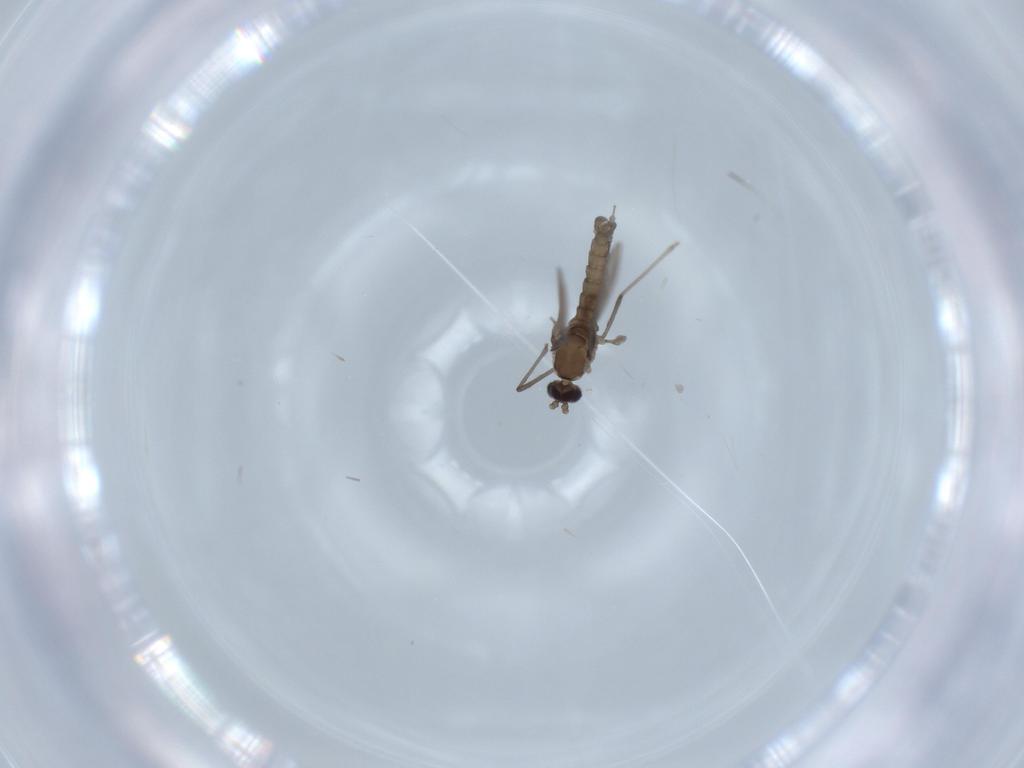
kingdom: Animalia
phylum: Arthropoda
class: Insecta
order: Diptera
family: Cecidomyiidae
